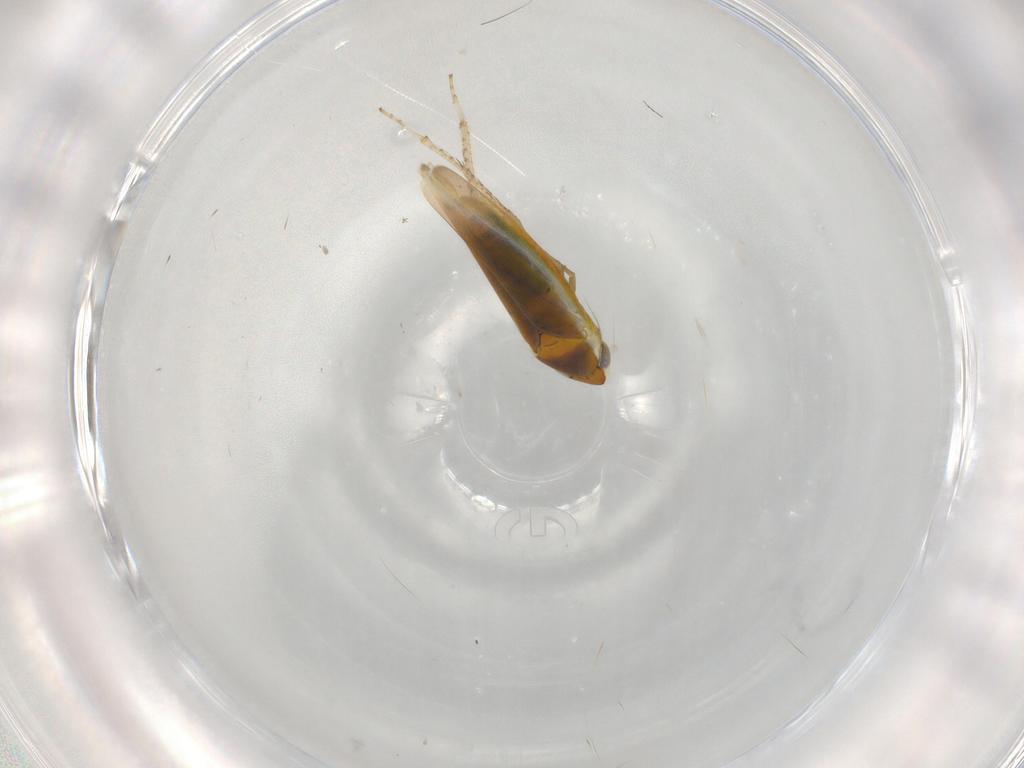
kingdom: Animalia
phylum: Arthropoda
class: Insecta
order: Hemiptera
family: Cicadellidae
